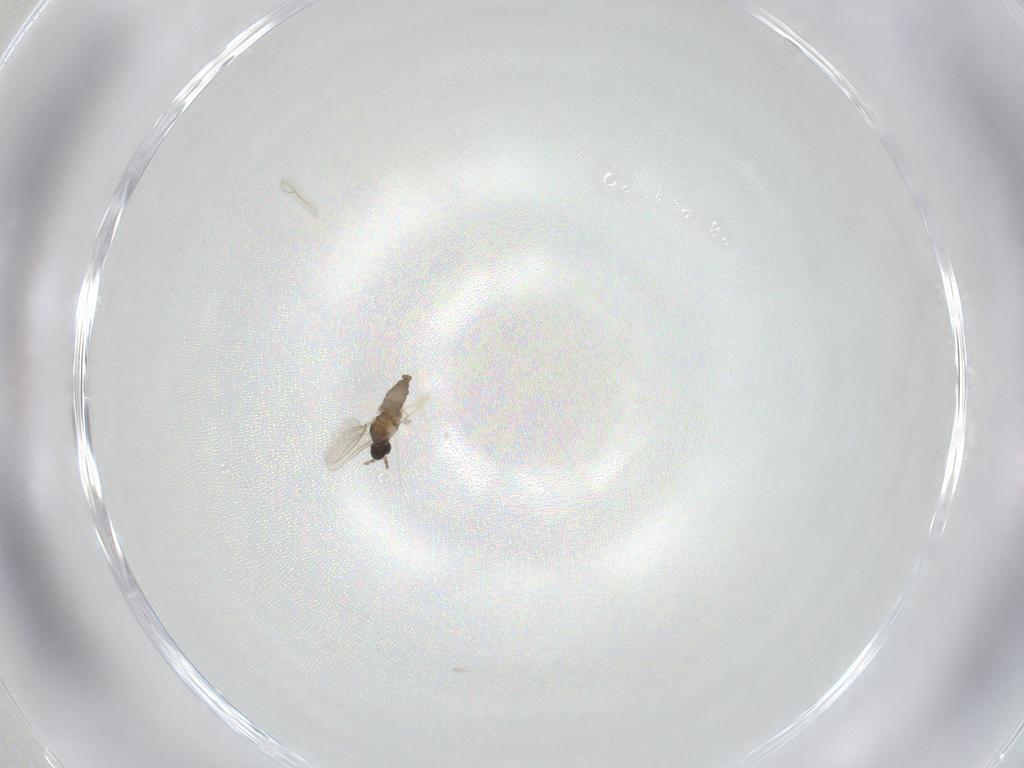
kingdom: Animalia
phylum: Arthropoda
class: Insecta
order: Diptera
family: Cecidomyiidae
